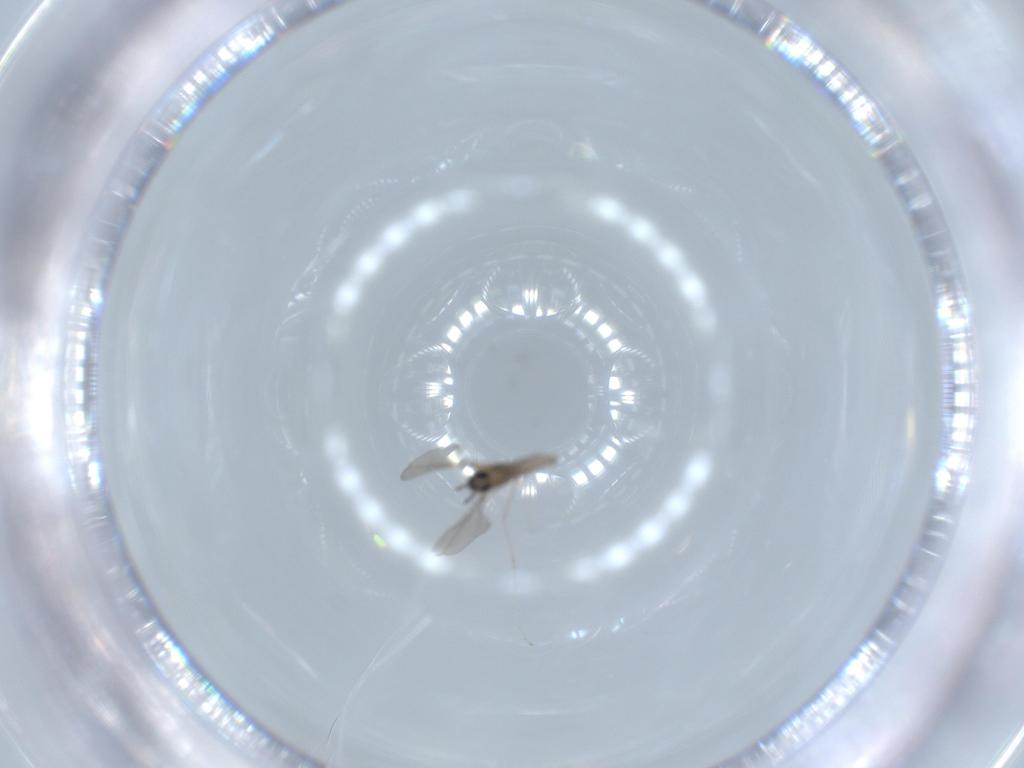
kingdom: Animalia
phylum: Arthropoda
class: Insecta
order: Diptera
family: Cecidomyiidae
